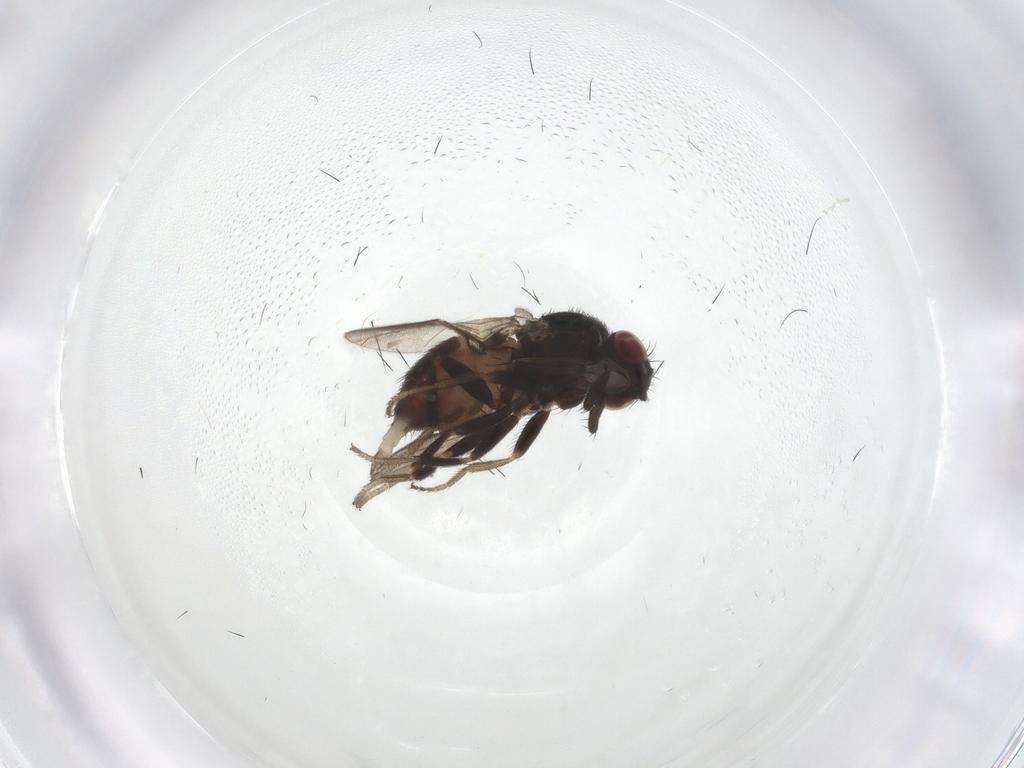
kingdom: Animalia
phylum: Arthropoda
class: Insecta
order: Diptera
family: Milichiidae
